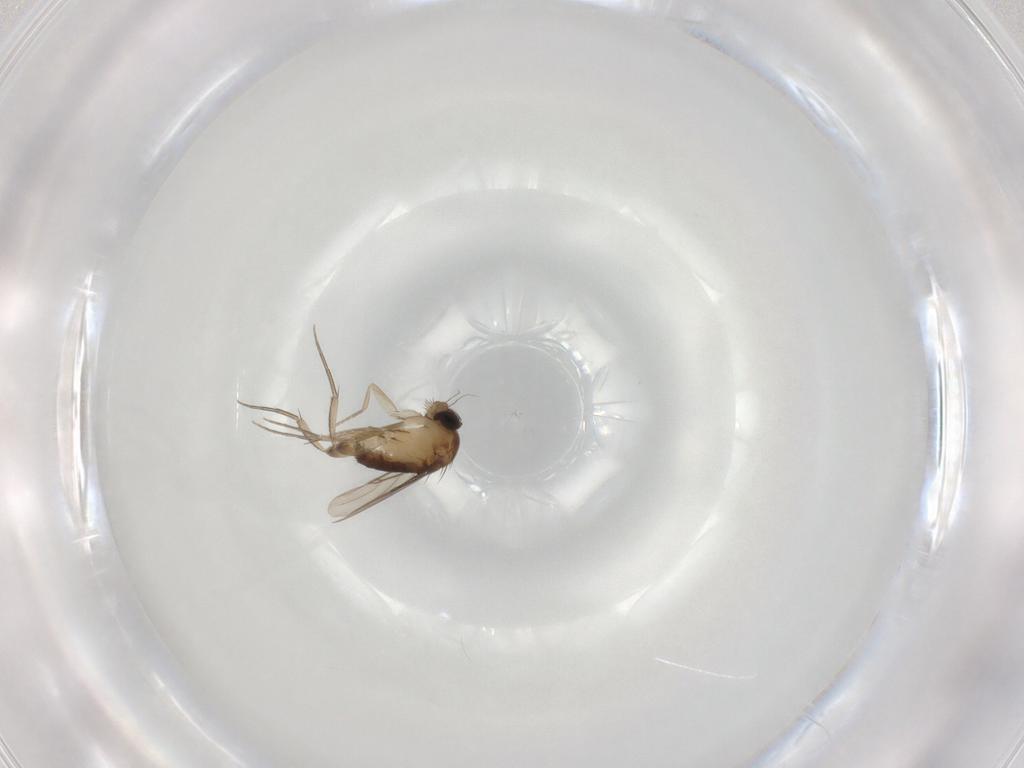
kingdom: Animalia
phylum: Arthropoda
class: Insecta
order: Diptera
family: Phoridae
